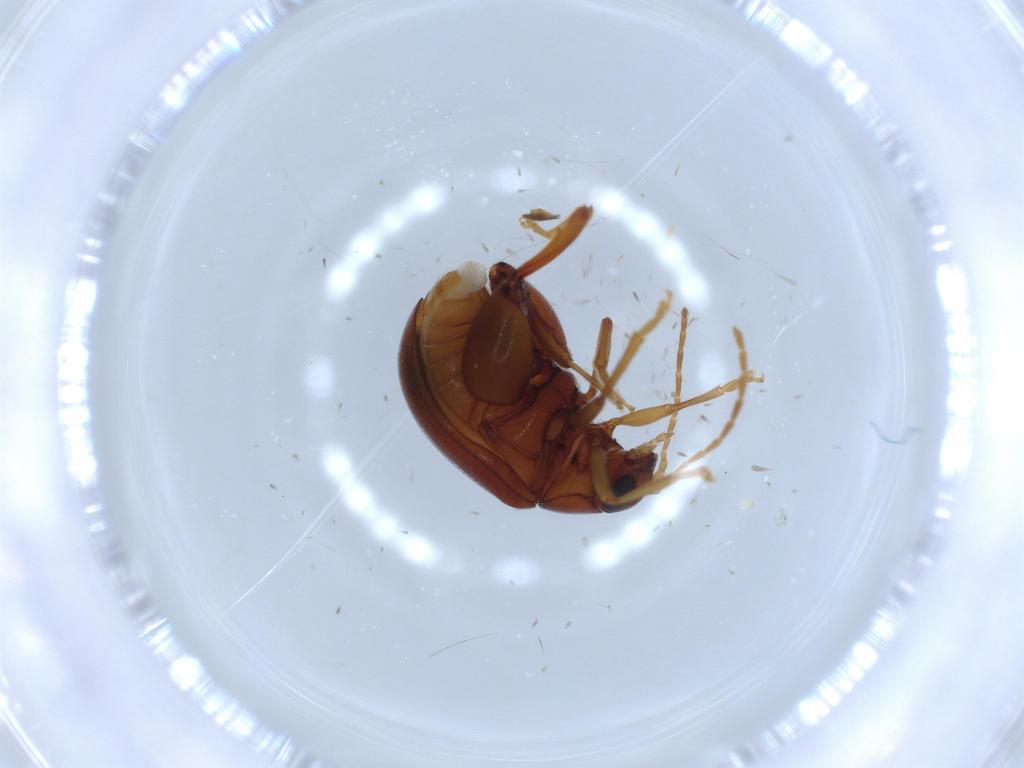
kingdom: Animalia
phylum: Arthropoda
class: Insecta
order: Coleoptera
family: Chrysomelidae
